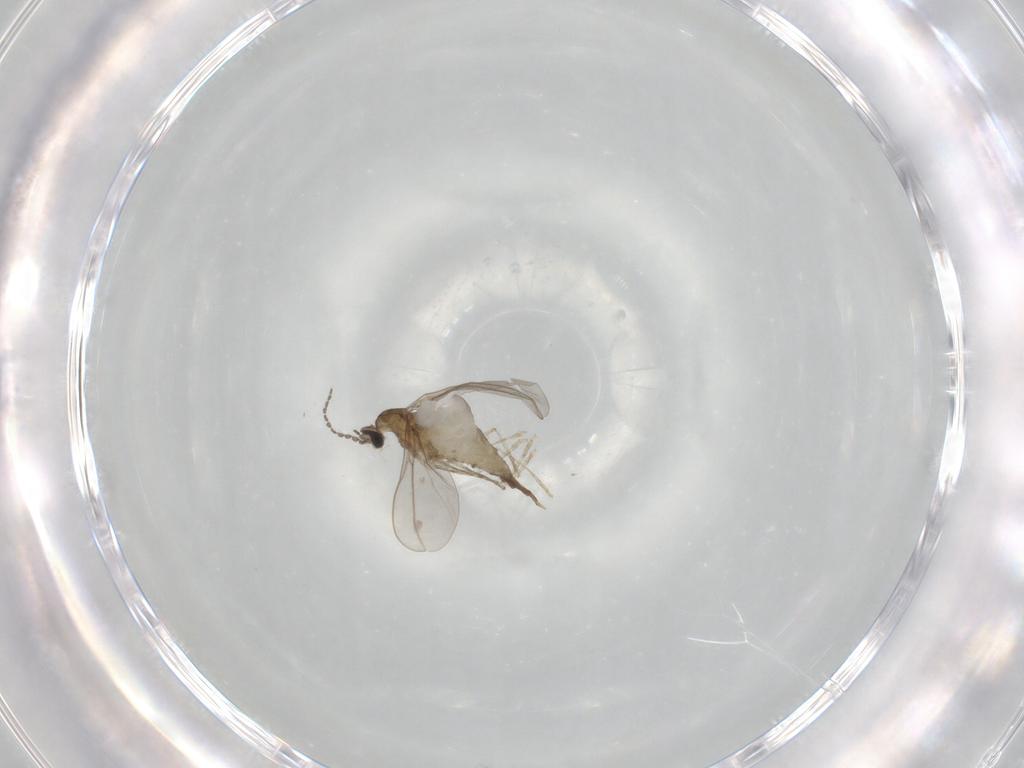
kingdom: Animalia
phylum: Arthropoda
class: Insecta
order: Diptera
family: Cecidomyiidae
